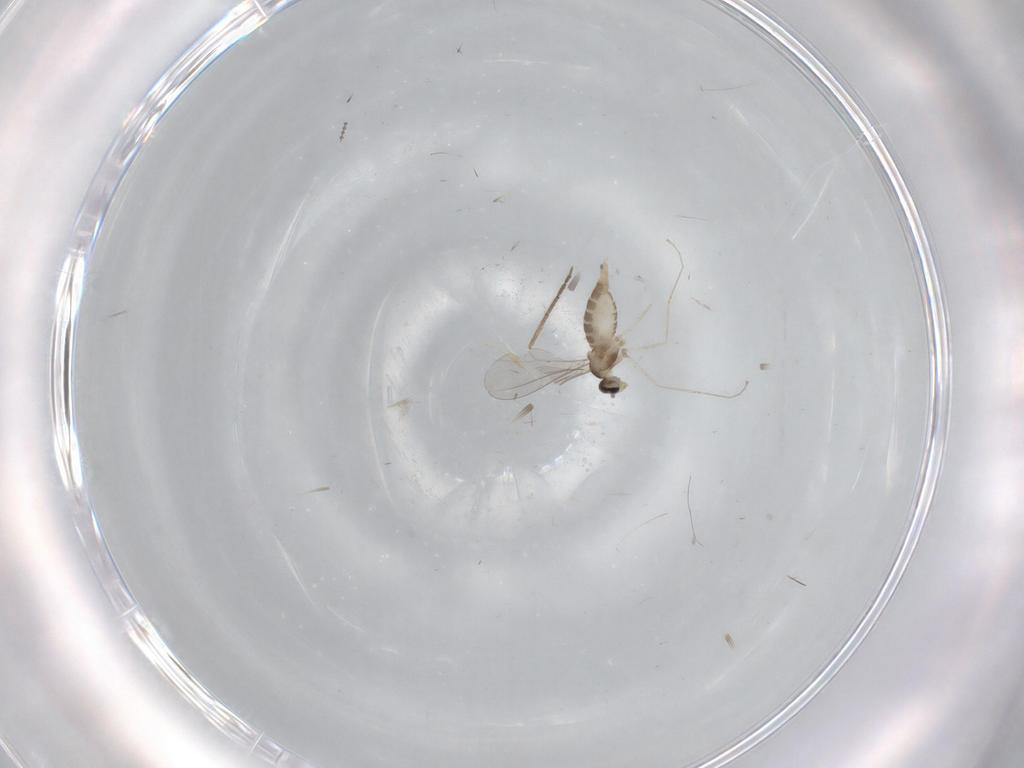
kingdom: Animalia
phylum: Arthropoda
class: Insecta
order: Diptera
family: Cecidomyiidae
